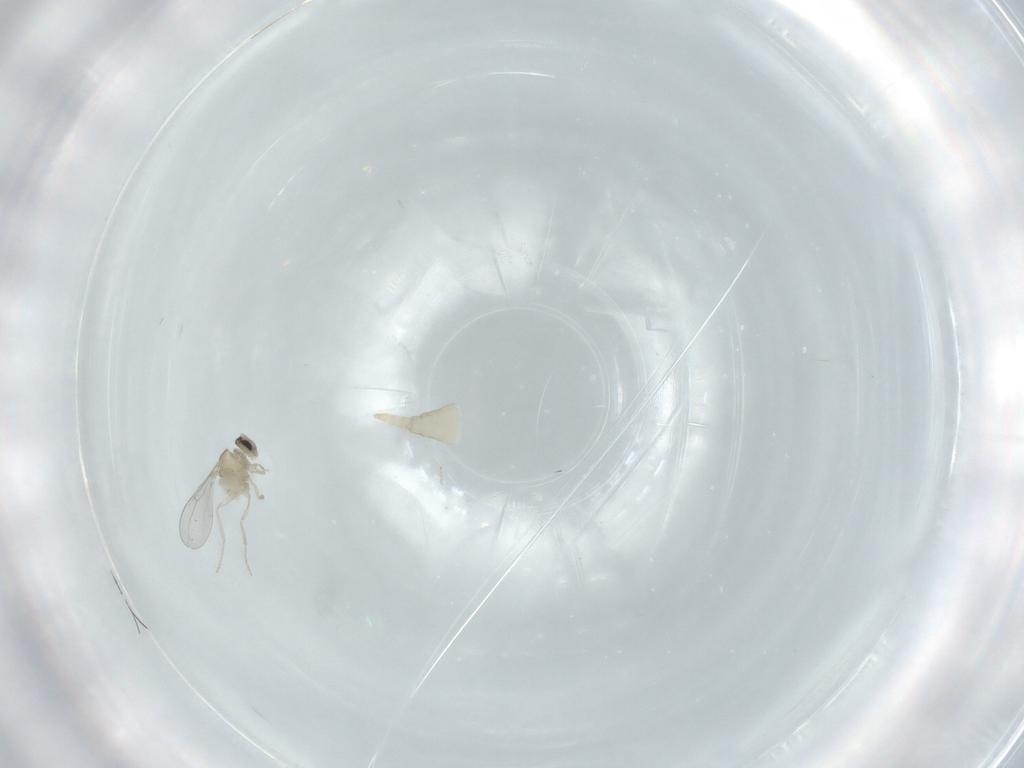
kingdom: Animalia
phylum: Arthropoda
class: Insecta
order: Diptera
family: Cecidomyiidae
